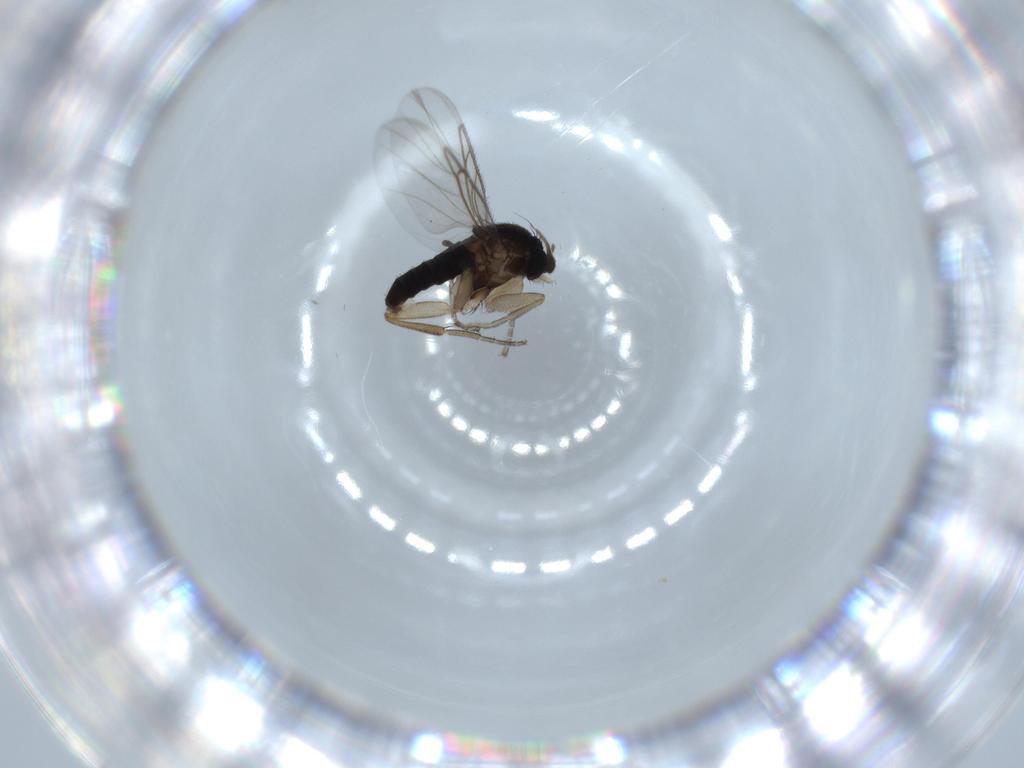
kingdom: Animalia
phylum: Arthropoda
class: Insecta
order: Diptera
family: Phoridae
